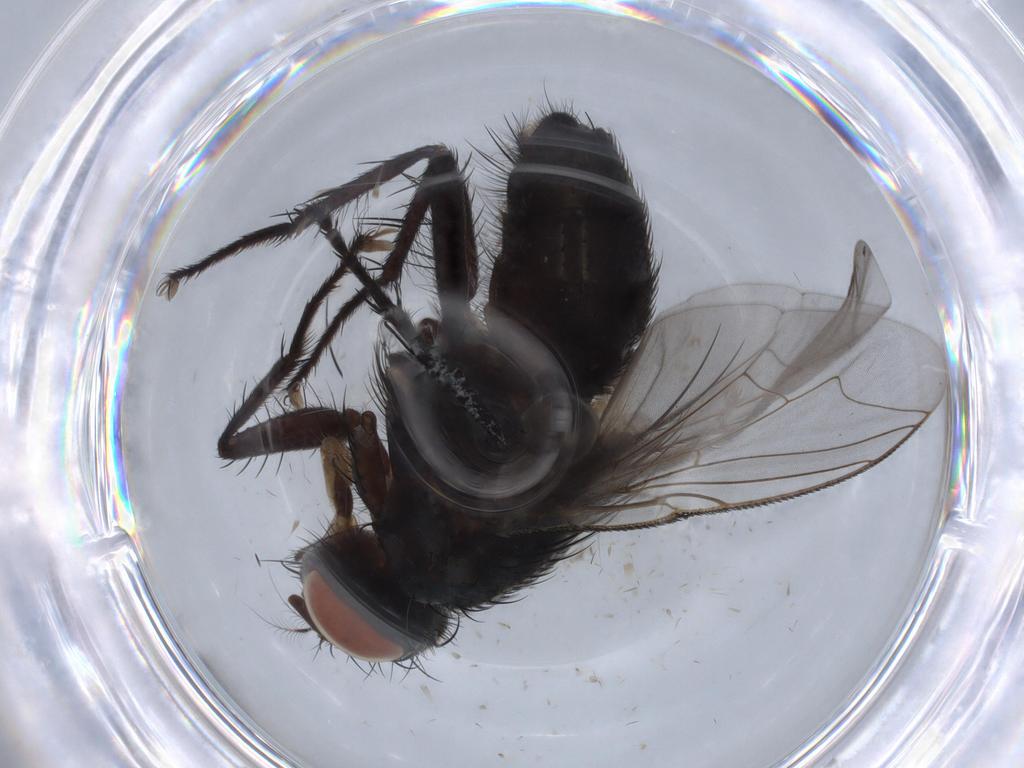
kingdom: Animalia
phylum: Arthropoda
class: Insecta
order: Diptera
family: Sarcophagidae
